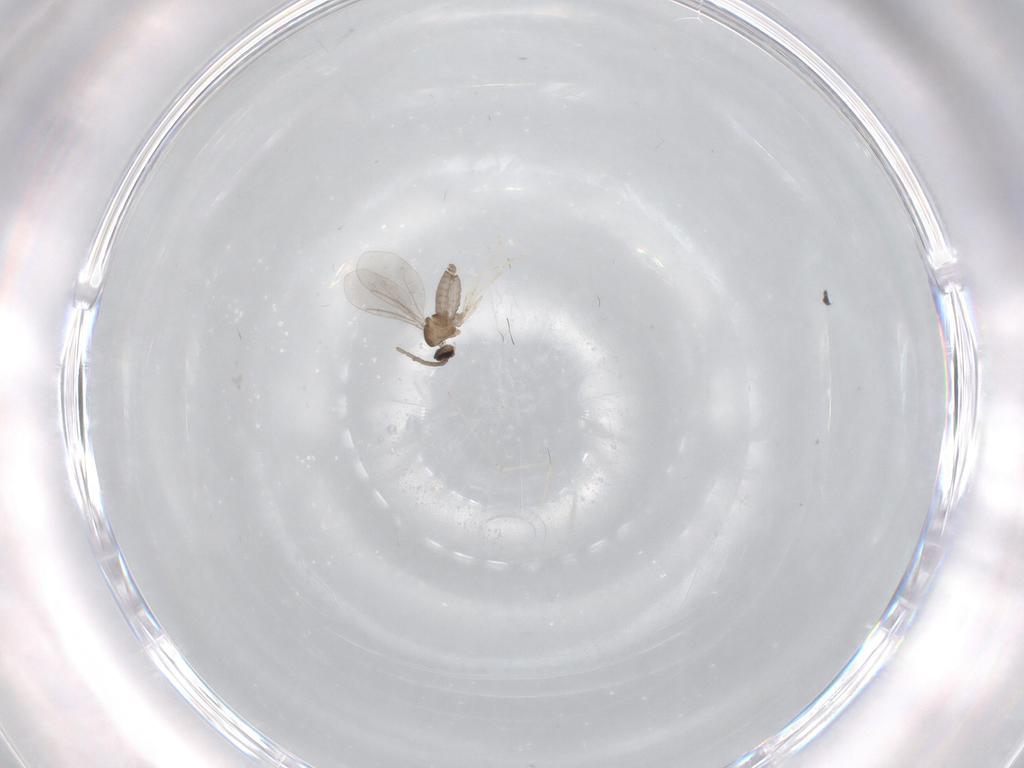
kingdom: Animalia
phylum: Arthropoda
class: Insecta
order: Diptera
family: Cecidomyiidae
